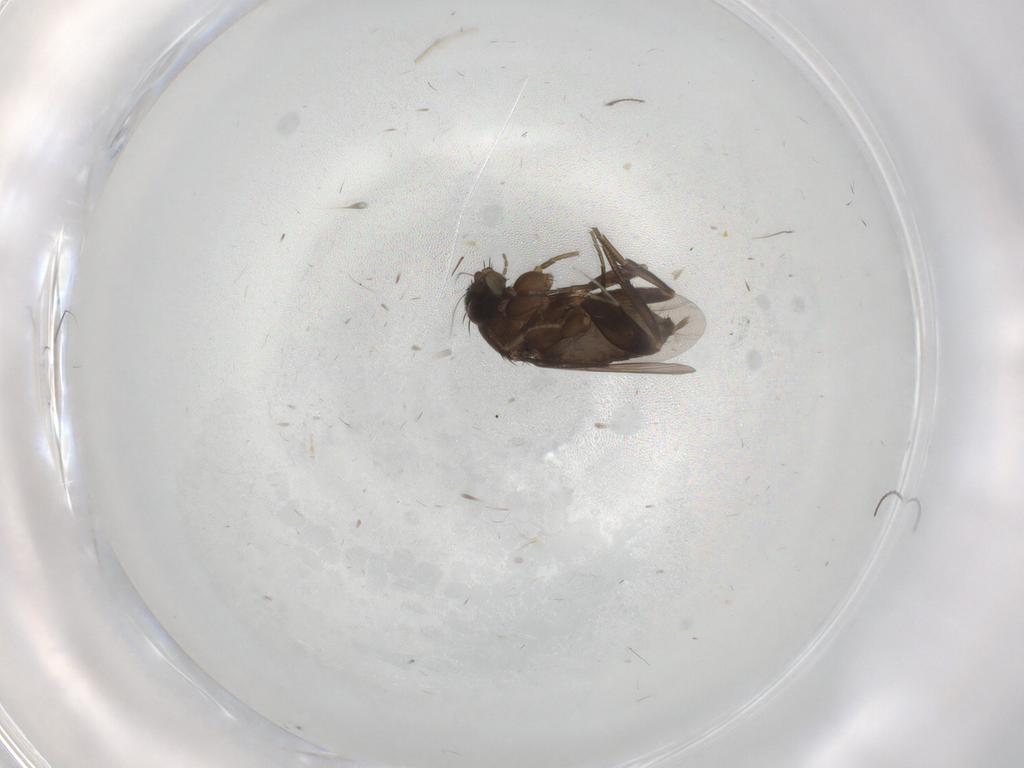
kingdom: Animalia
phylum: Arthropoda
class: Insecta
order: Diptera
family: Phoridae
